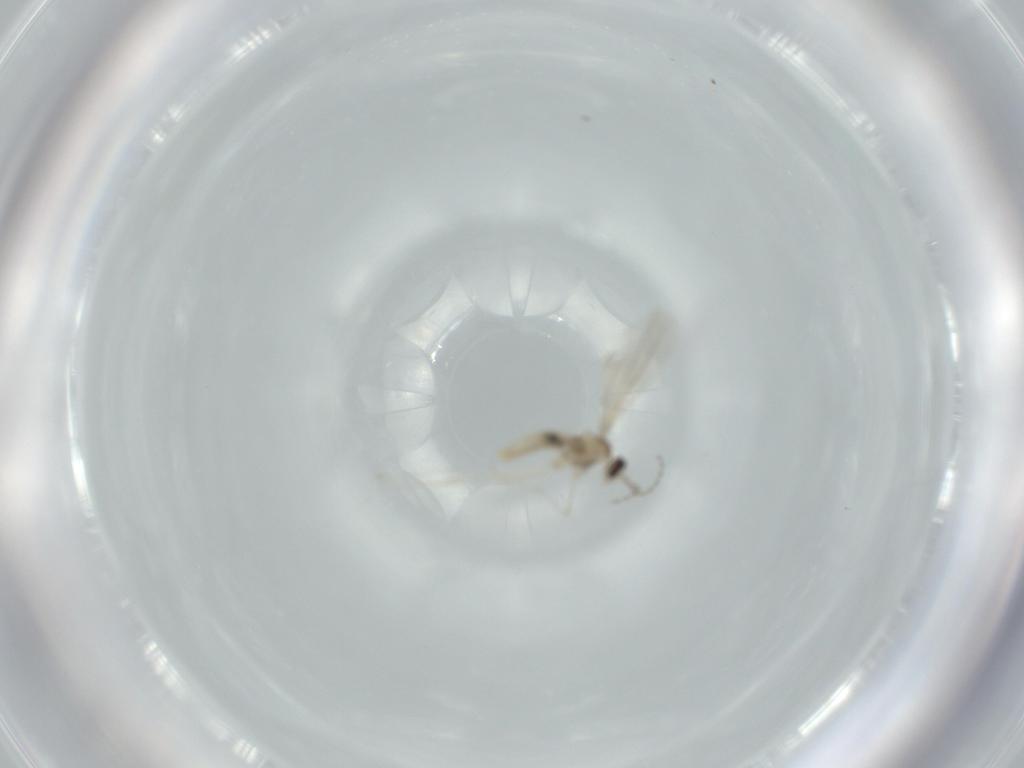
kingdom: Animalia
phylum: Arthropoda
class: Insecta
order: Diptera
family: Cecidomyiidae
